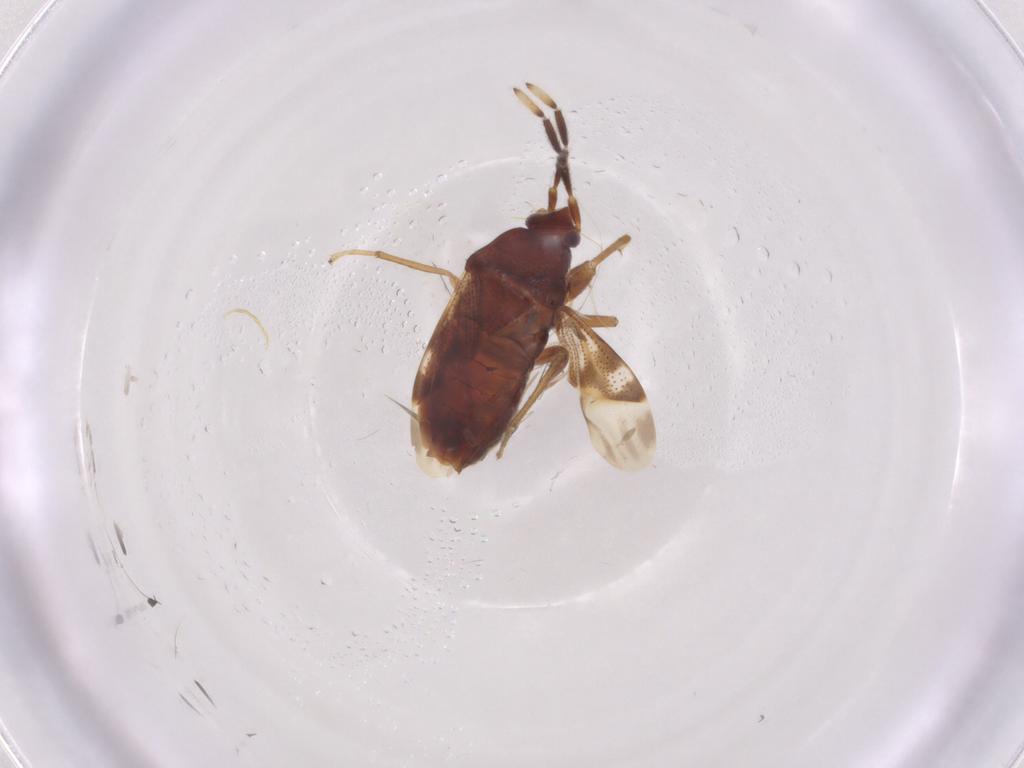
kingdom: Animalia
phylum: Arthropoda
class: Insecta
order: Hemiptera
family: Rhyparochromidae
